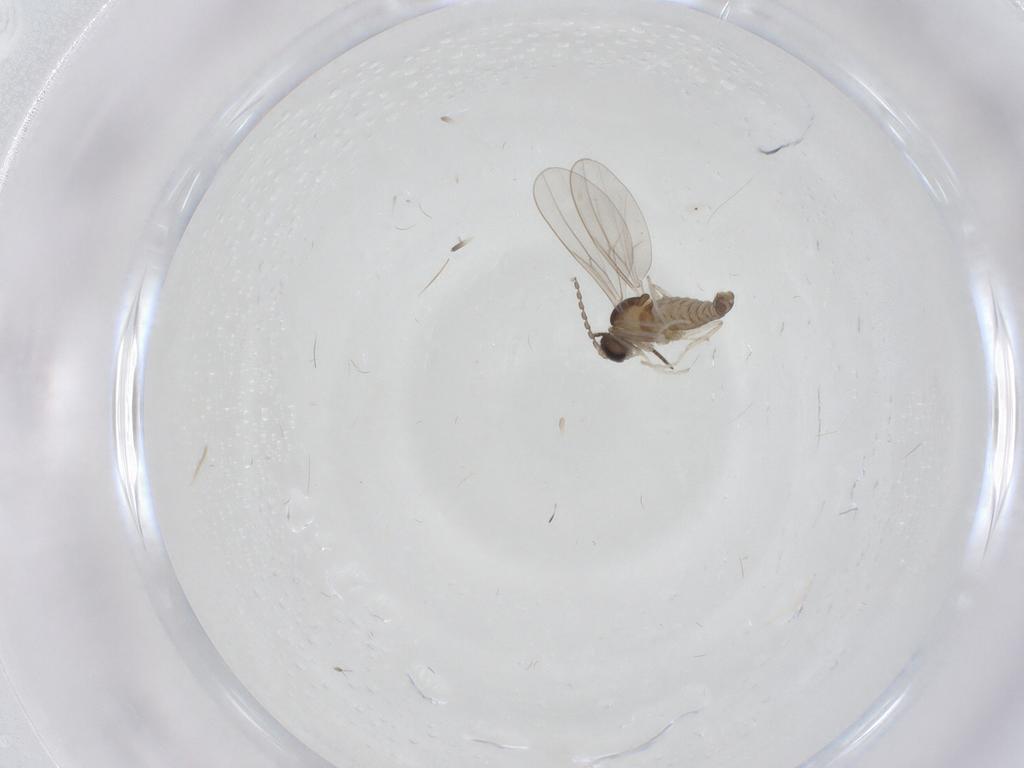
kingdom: Animalia
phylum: Arthropoda
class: Insecta
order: Diptera
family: Cecidomyiidae
